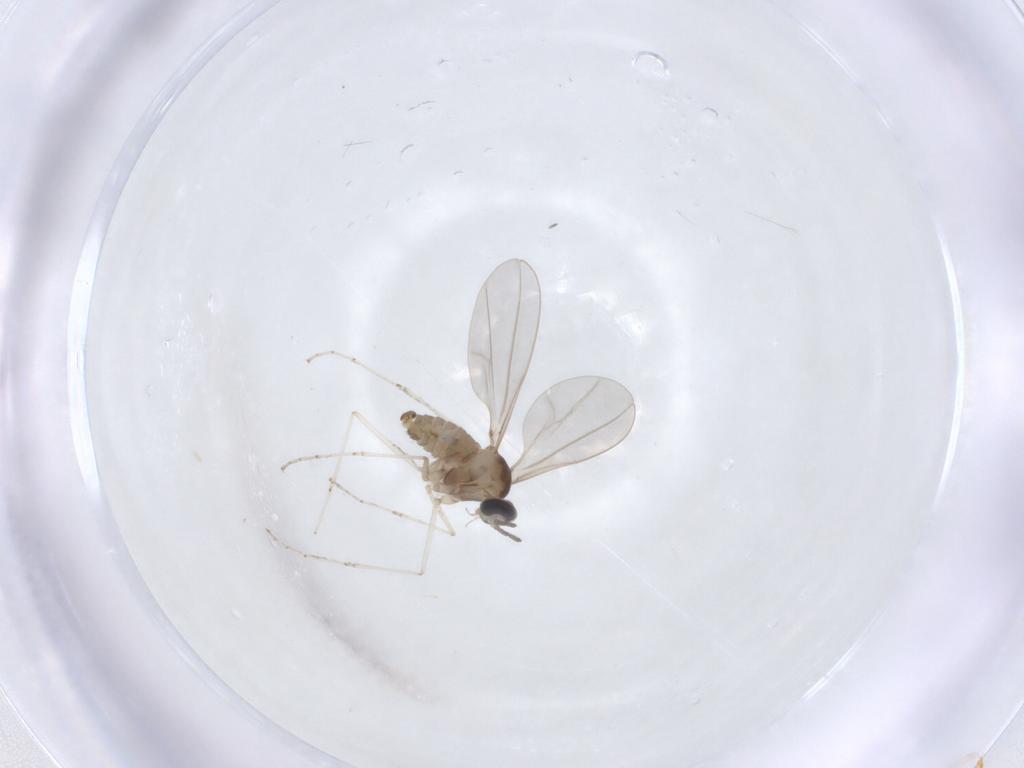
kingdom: Animalia
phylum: Arthropoda
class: Insecta
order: Diptera
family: Cecidomyiidae
